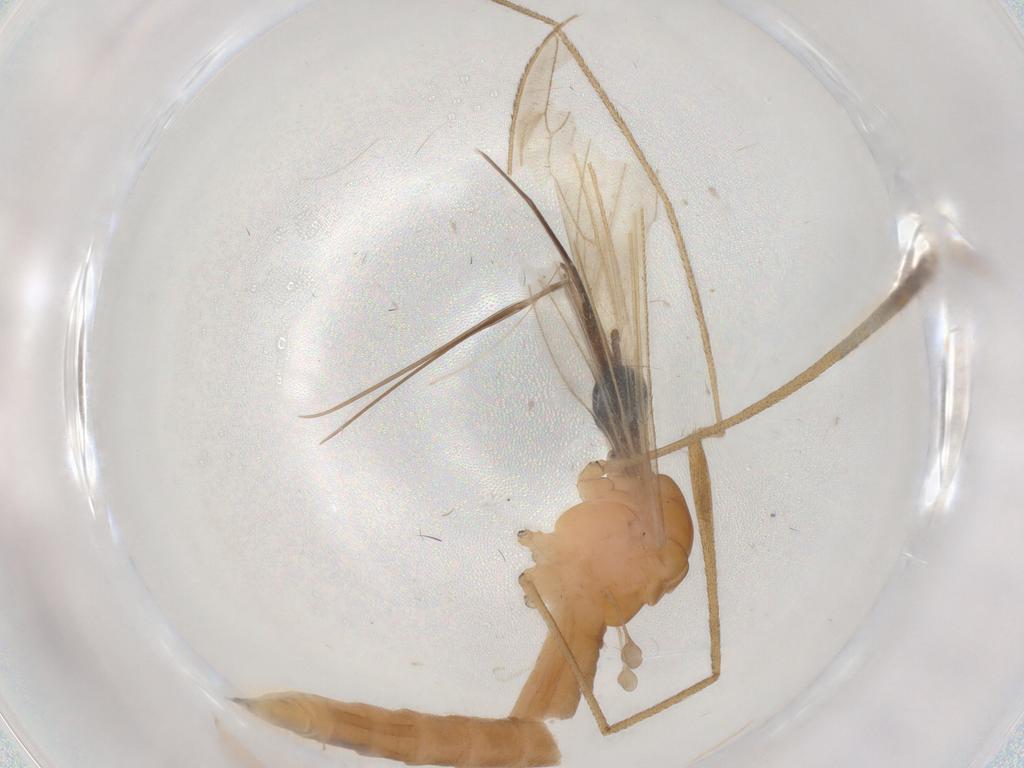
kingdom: Animalia
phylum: Arthropoda
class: Insecta
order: Diptera
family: Limoniidae
